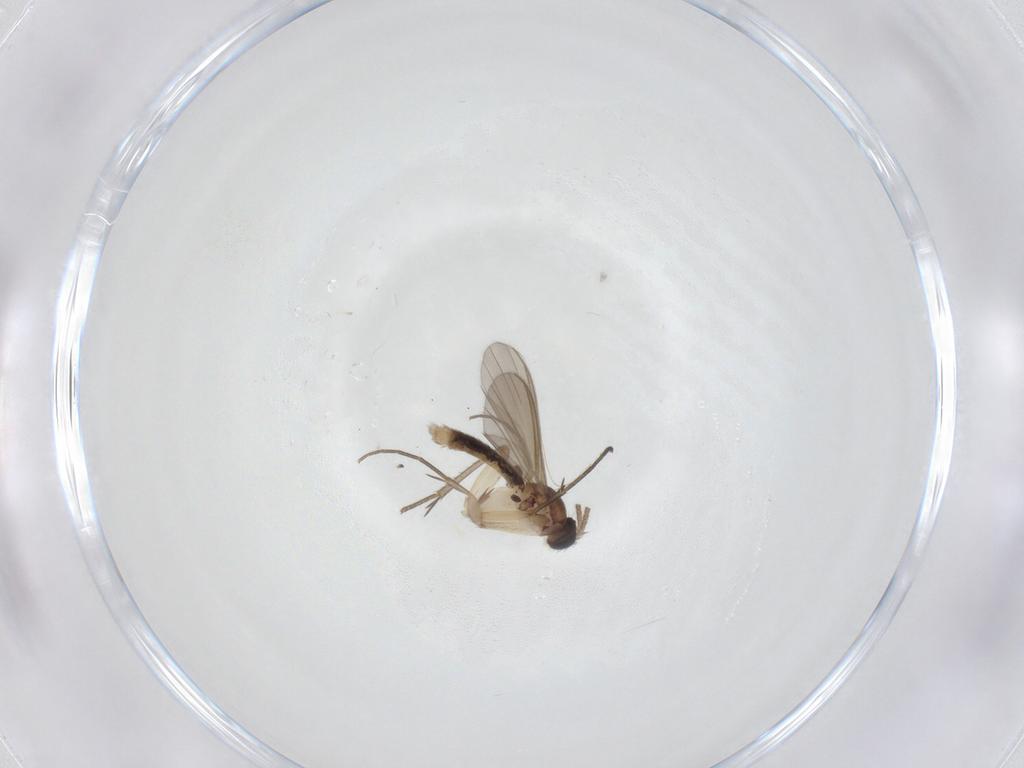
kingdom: Animalia
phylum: Arthropoda
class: Insecta
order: Diptera
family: Mycetophilidae
